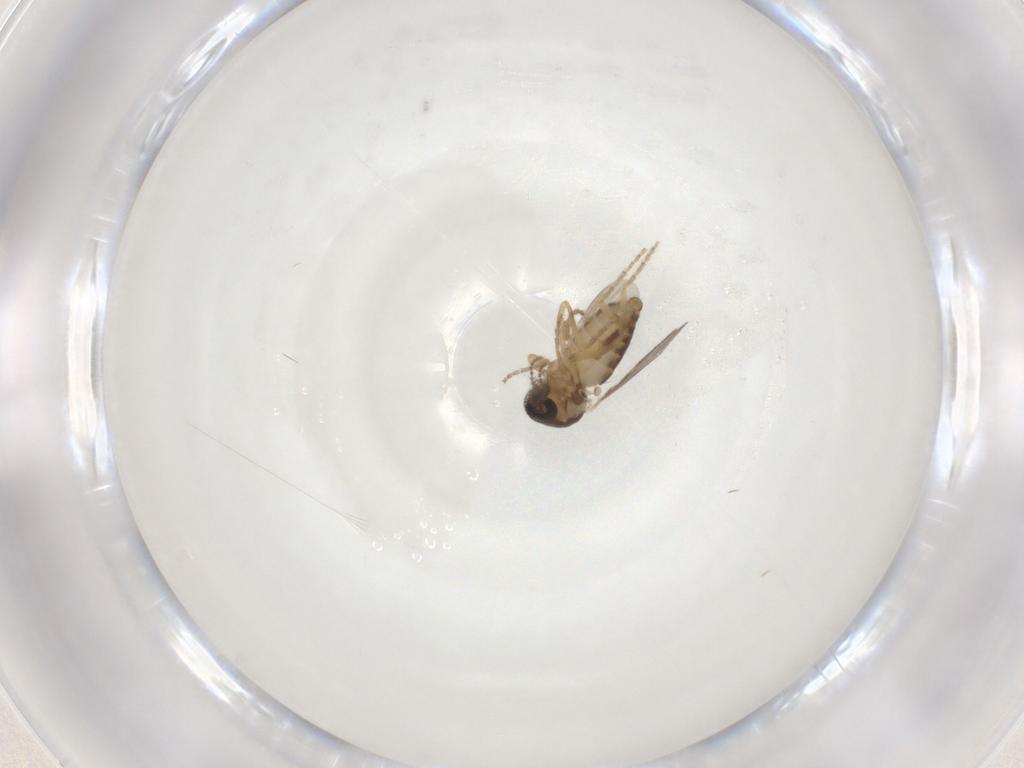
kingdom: Animalia
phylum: Arthropoda
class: Insecta
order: Diptera
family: Ceratopogonidae
